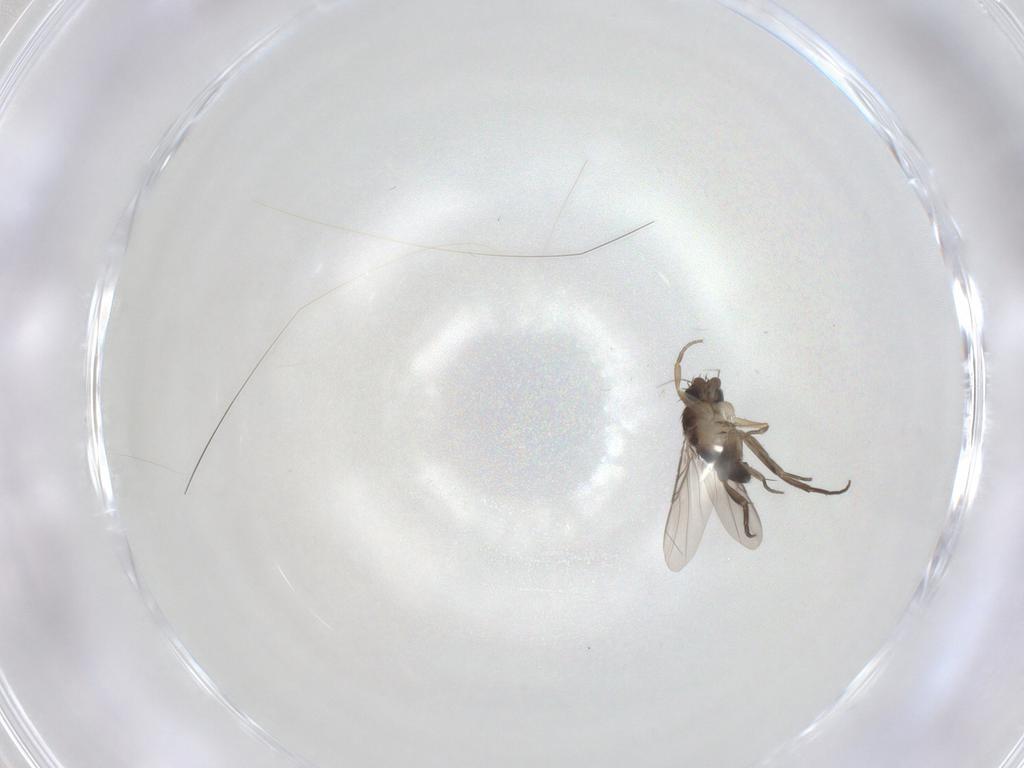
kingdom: Animalia
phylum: Arthropoda
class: Insecta
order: Diptera
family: Phoridae
